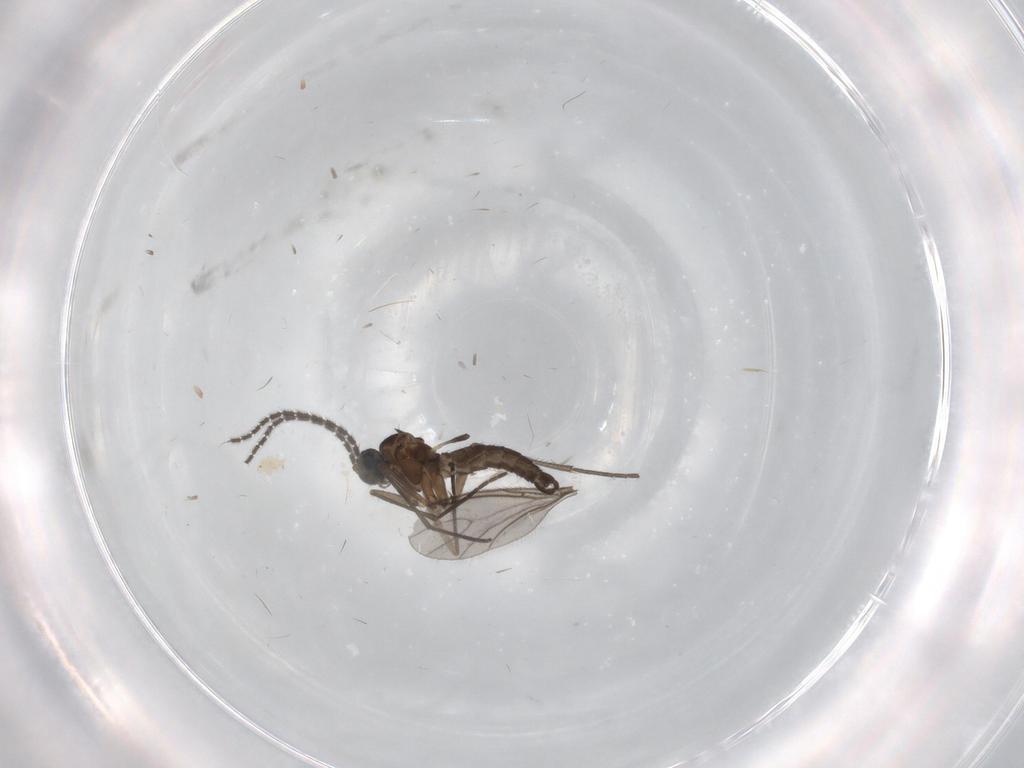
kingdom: Animalia
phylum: Arthropoda
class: Insecta
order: Diptera
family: Sciaridae
